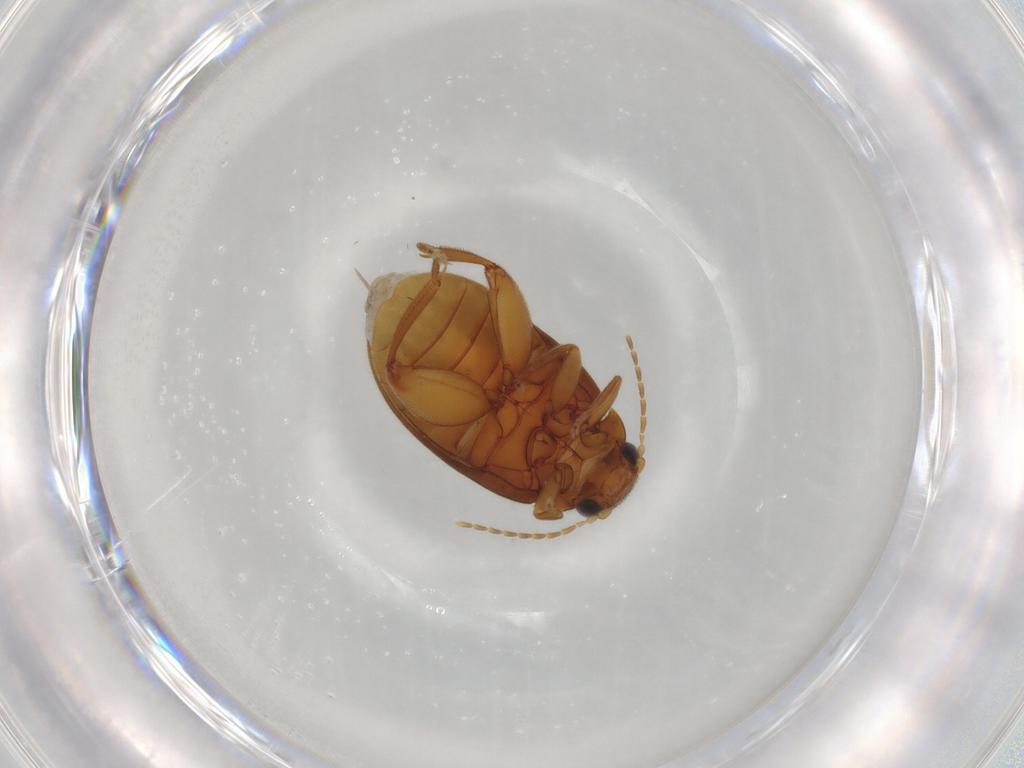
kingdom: Animalia
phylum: Arthropoda
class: Insecta
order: Coleoptera
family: Scirtidae
